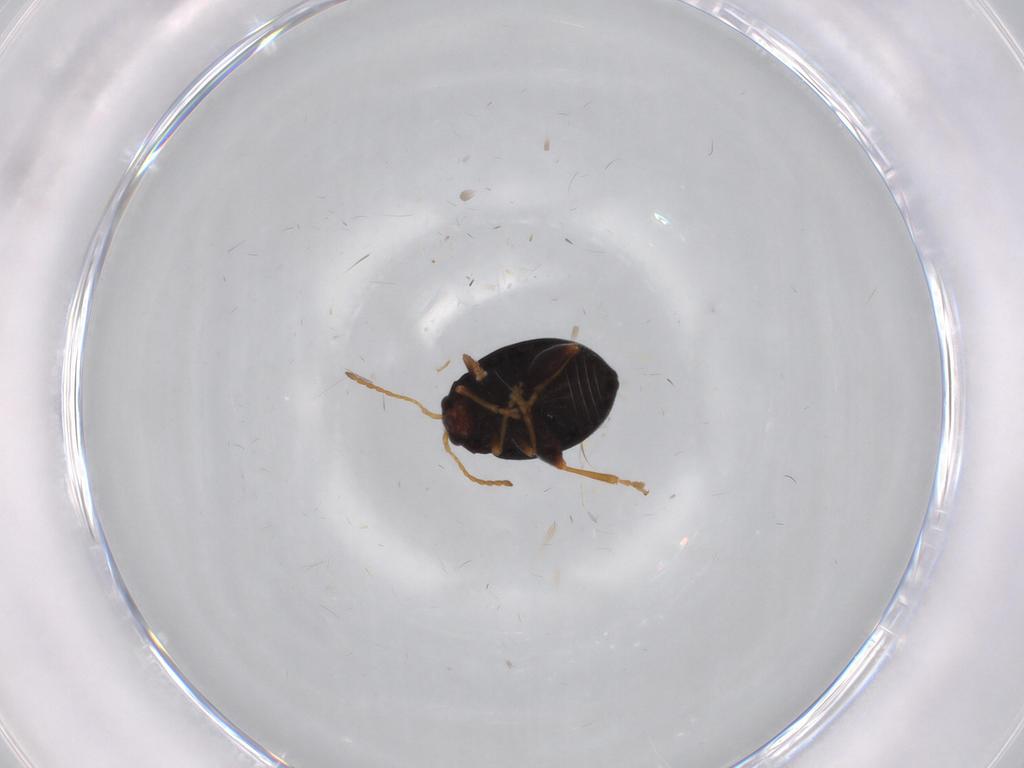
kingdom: Animalia
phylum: Arthropoda
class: Insecta
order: Coleoptera
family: Chrysomelidae
